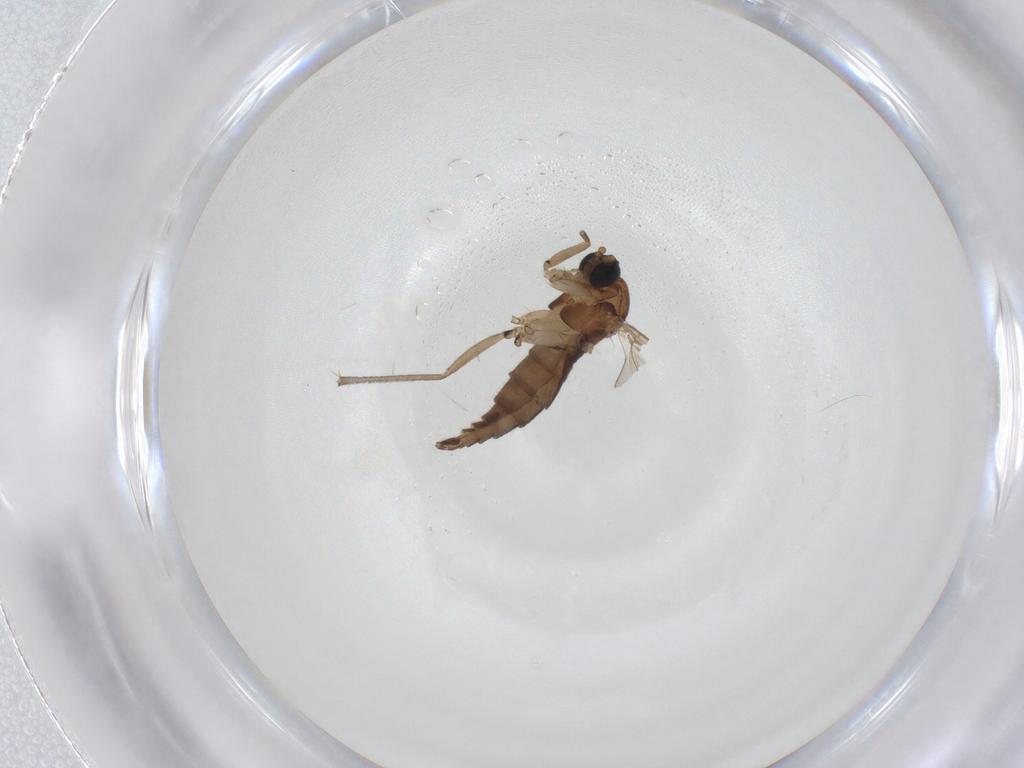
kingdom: Animalia
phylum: Arthropoda
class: Insecta
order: Diptera
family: Sciaridae
